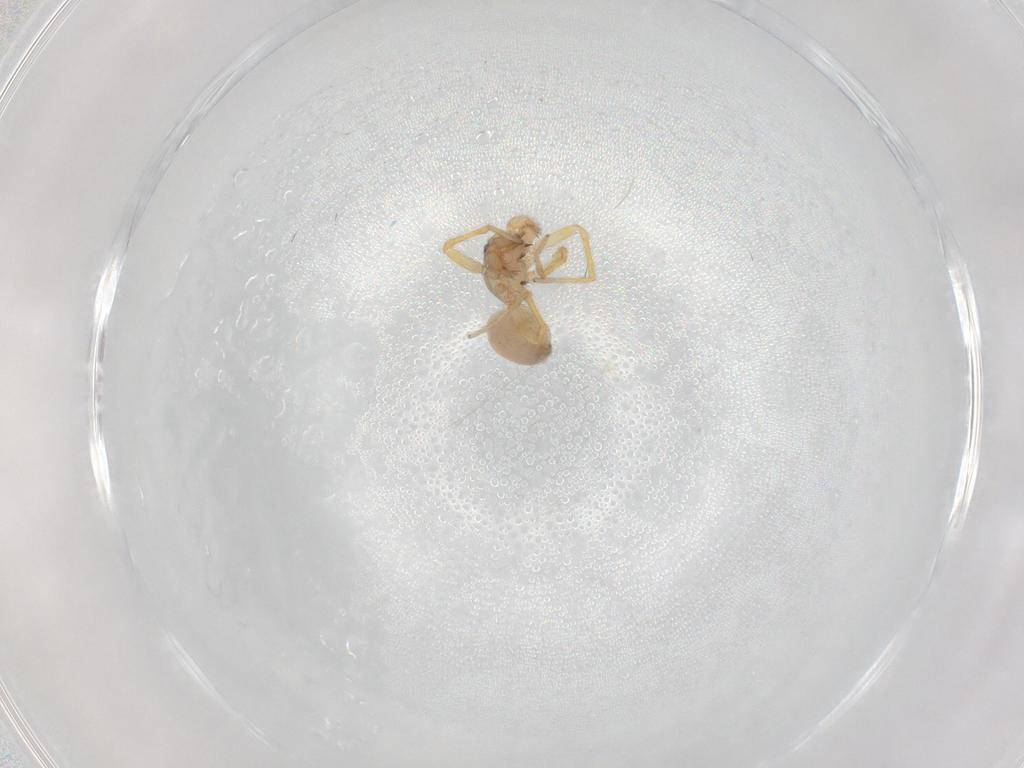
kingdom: Animalia
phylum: Arthropoda
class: Arachnida
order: Araneae
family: Oonopidae
